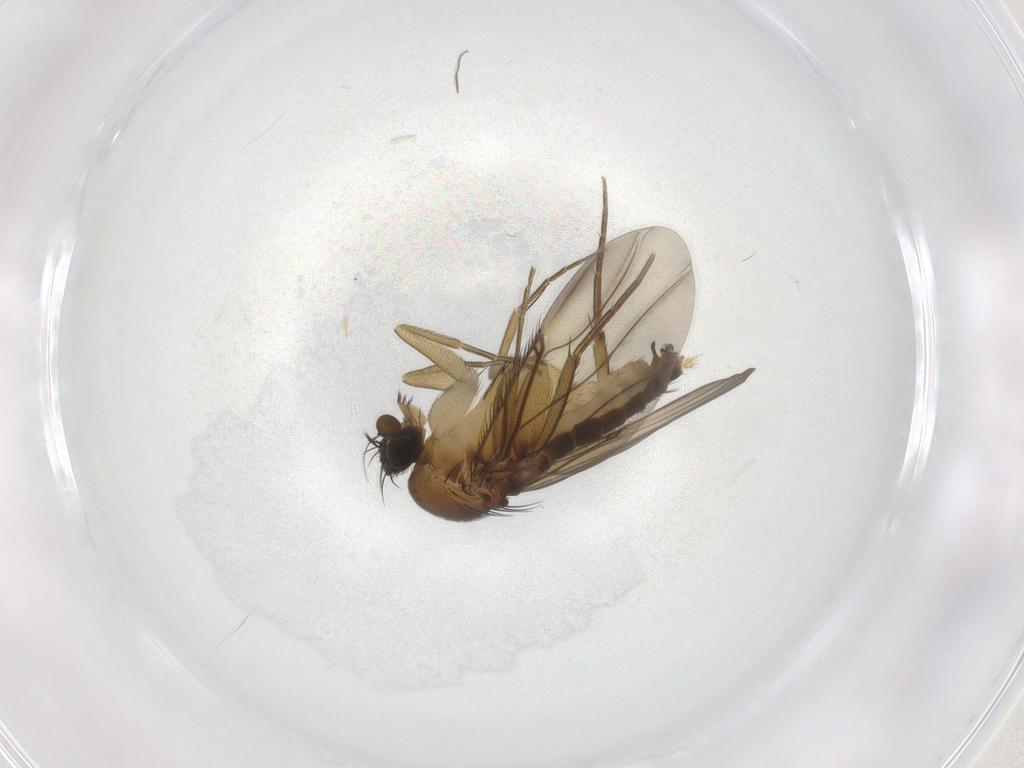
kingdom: Animalia
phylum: Arthropoda
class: Insecta
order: Diptera
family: Phoridae
